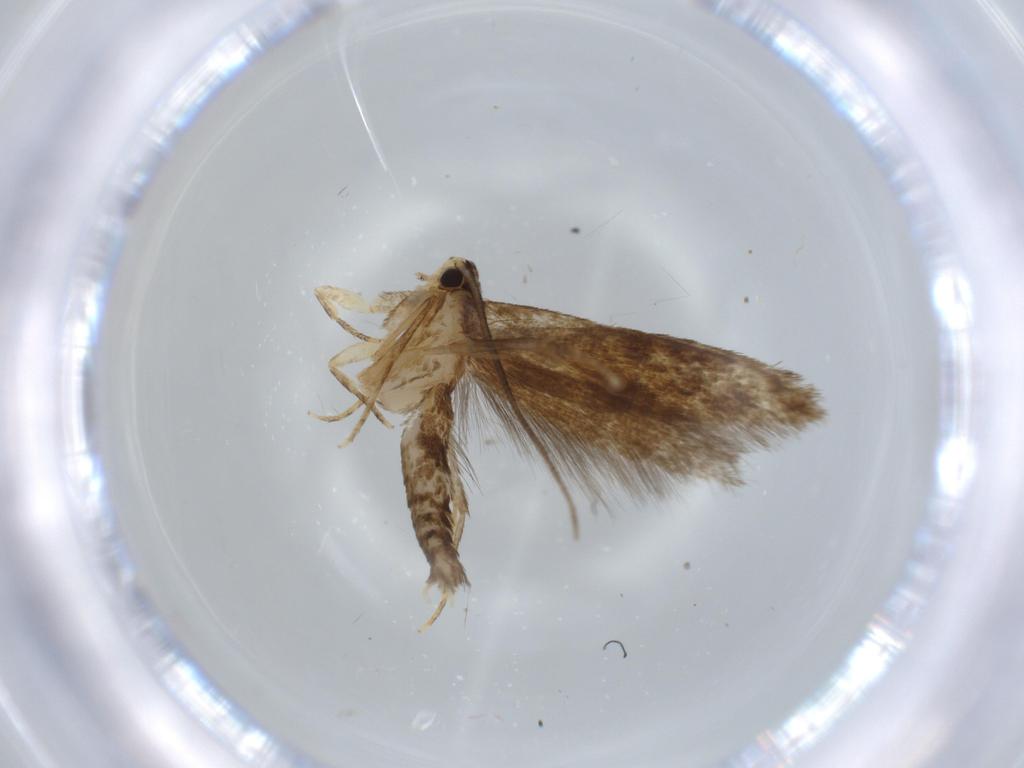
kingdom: Animalia
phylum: Arthropoda
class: Insecta
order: Lepidoptera
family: Tineidae
